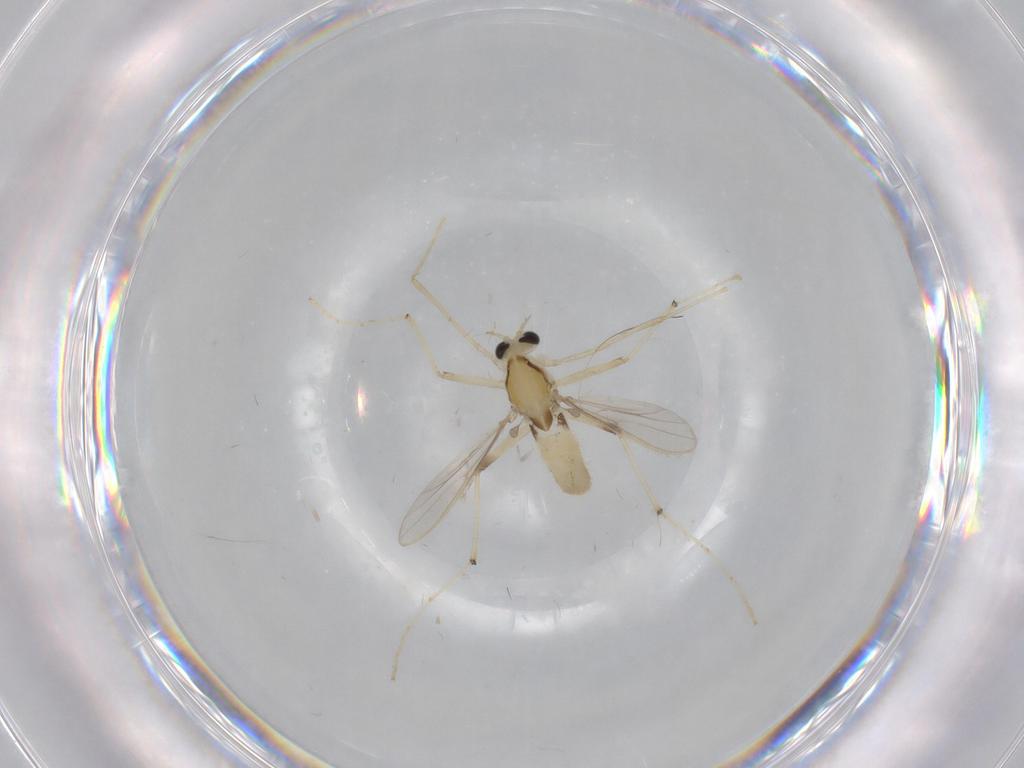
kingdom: Animalia
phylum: Arthropoda
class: Insecta
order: Diptera
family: Chironomidae
